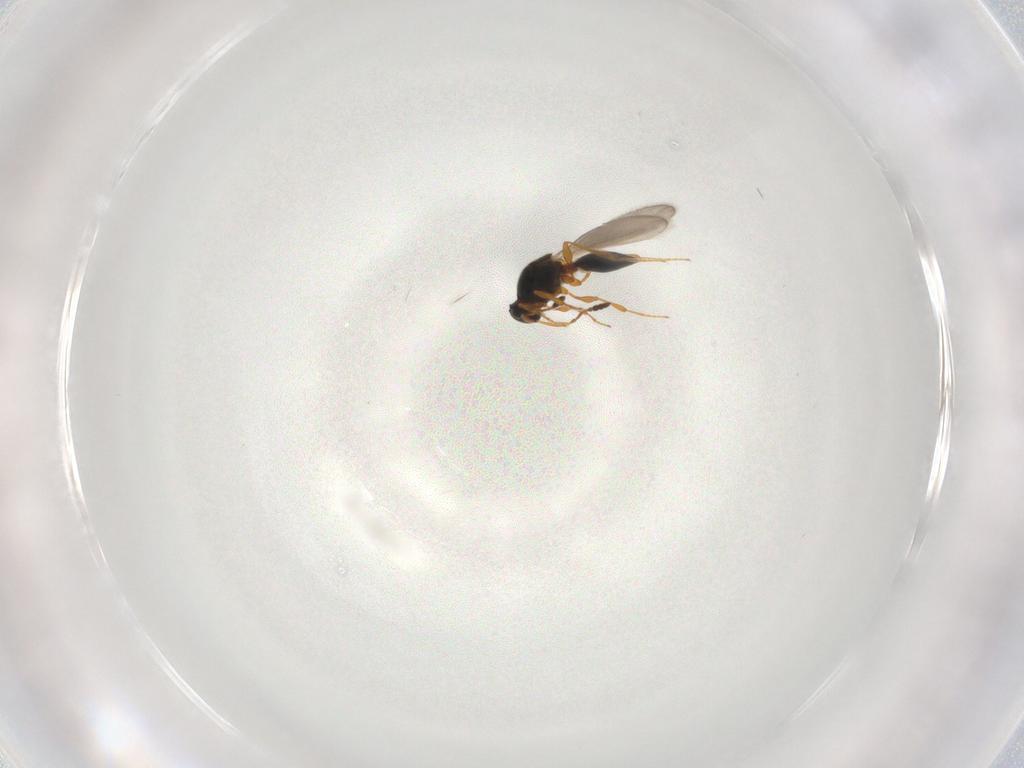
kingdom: Animalia
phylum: Arthropoda
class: Insecta
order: Hymenoptera
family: Platygastridae
